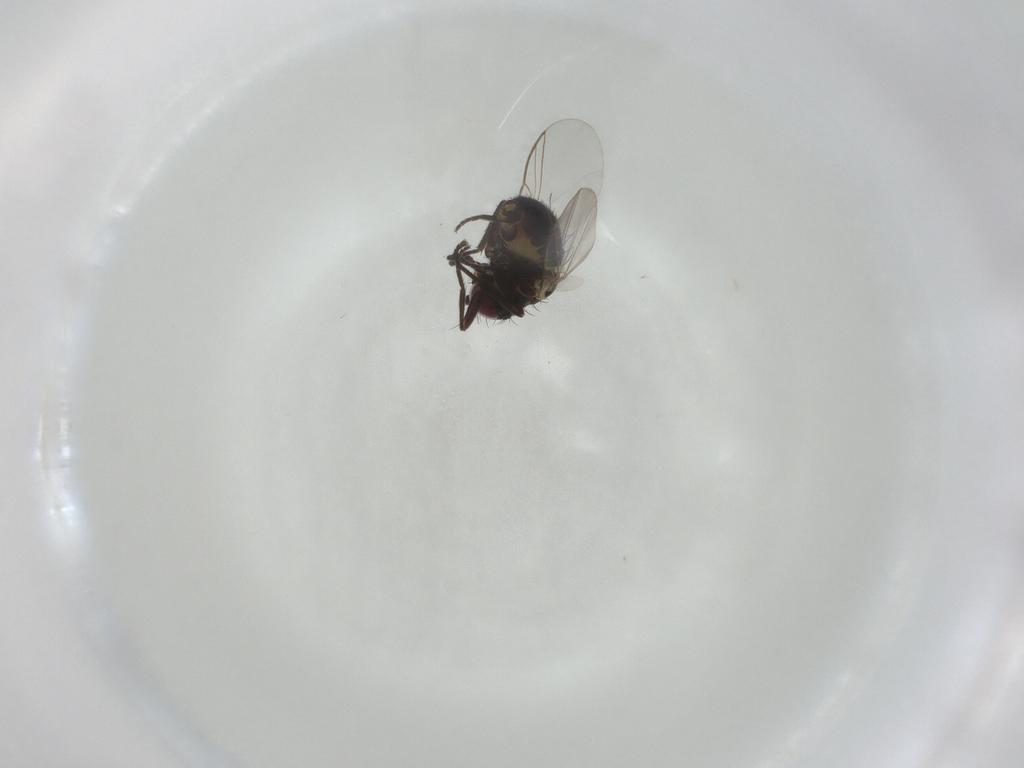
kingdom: Animalia
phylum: Arthropoda
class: Insecta
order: Diptera
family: Agromyzidae
